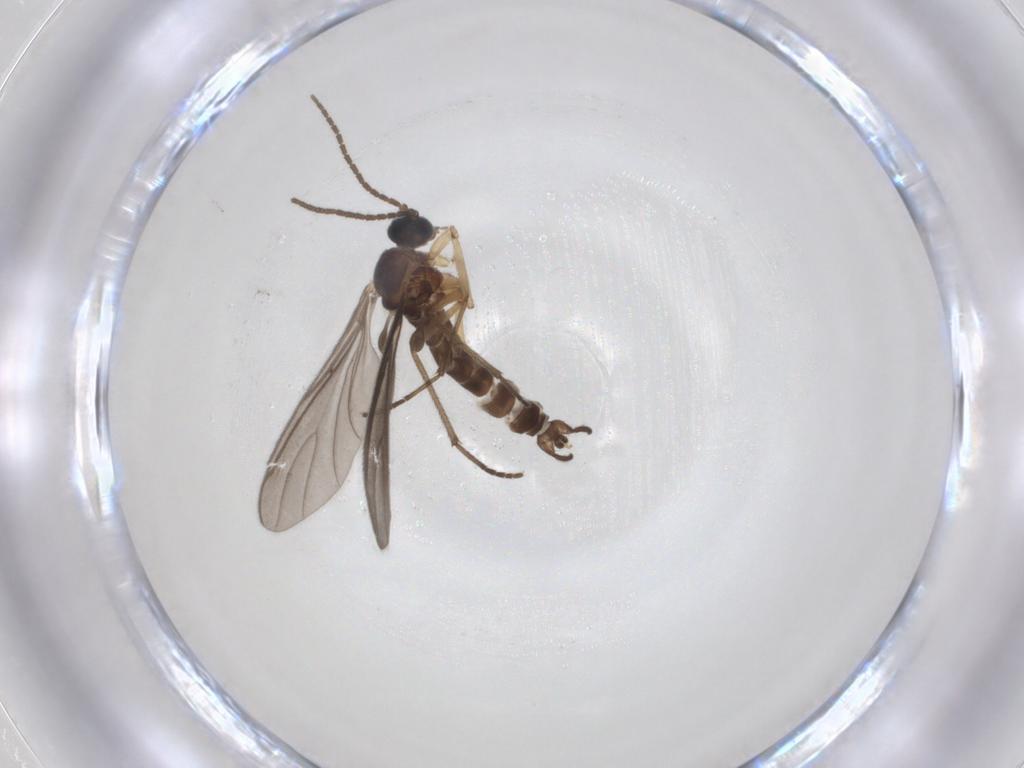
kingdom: Animalia
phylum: Arthropoda
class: Insecta
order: Diptera
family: Sciaridae
